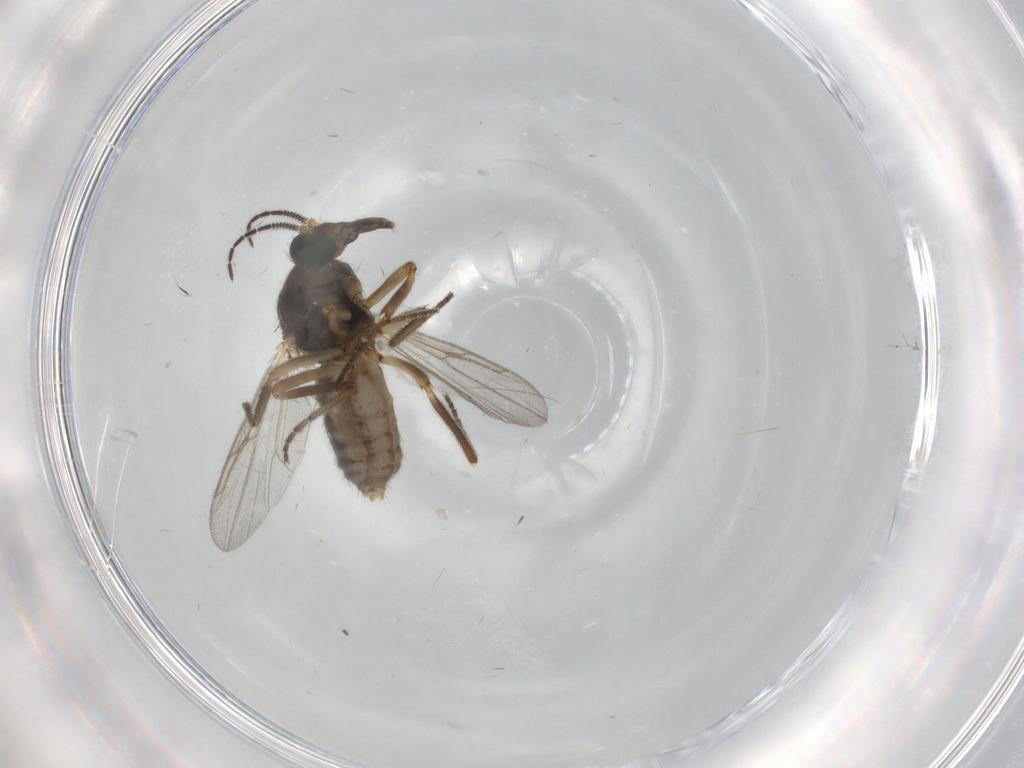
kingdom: Animalia
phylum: Arthropoda
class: Insecta
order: Diptera
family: Ceratopogonidae
